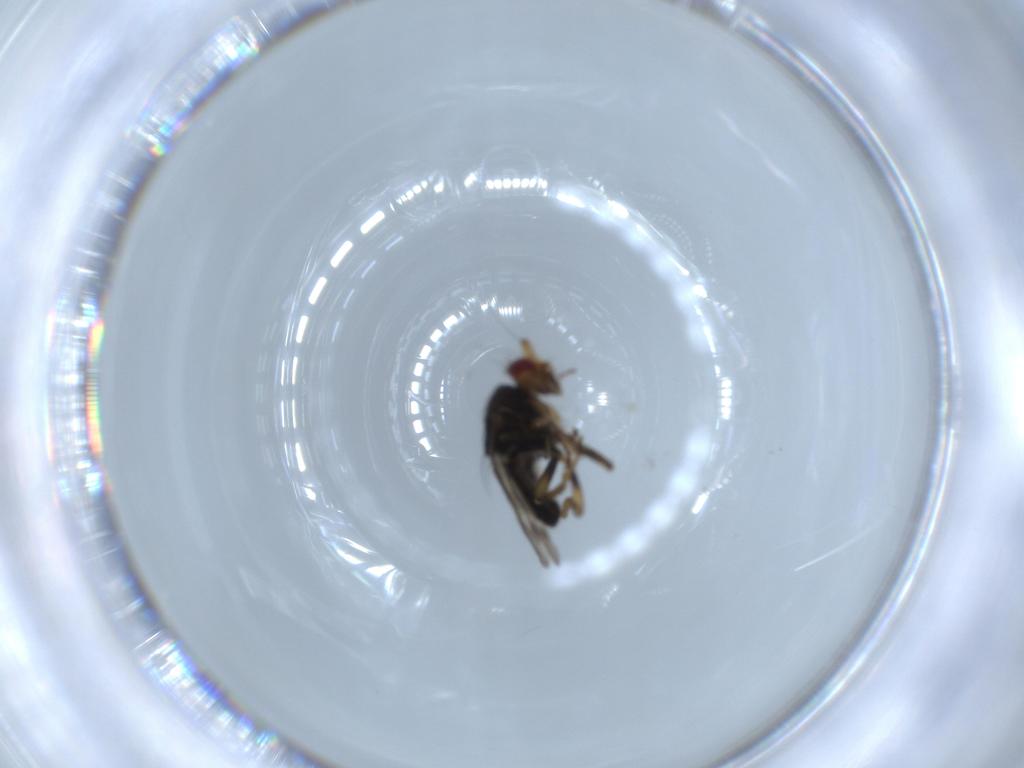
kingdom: Animalia
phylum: Arthropoda
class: Insecta
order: Diptera
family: Sphaeroceridae
